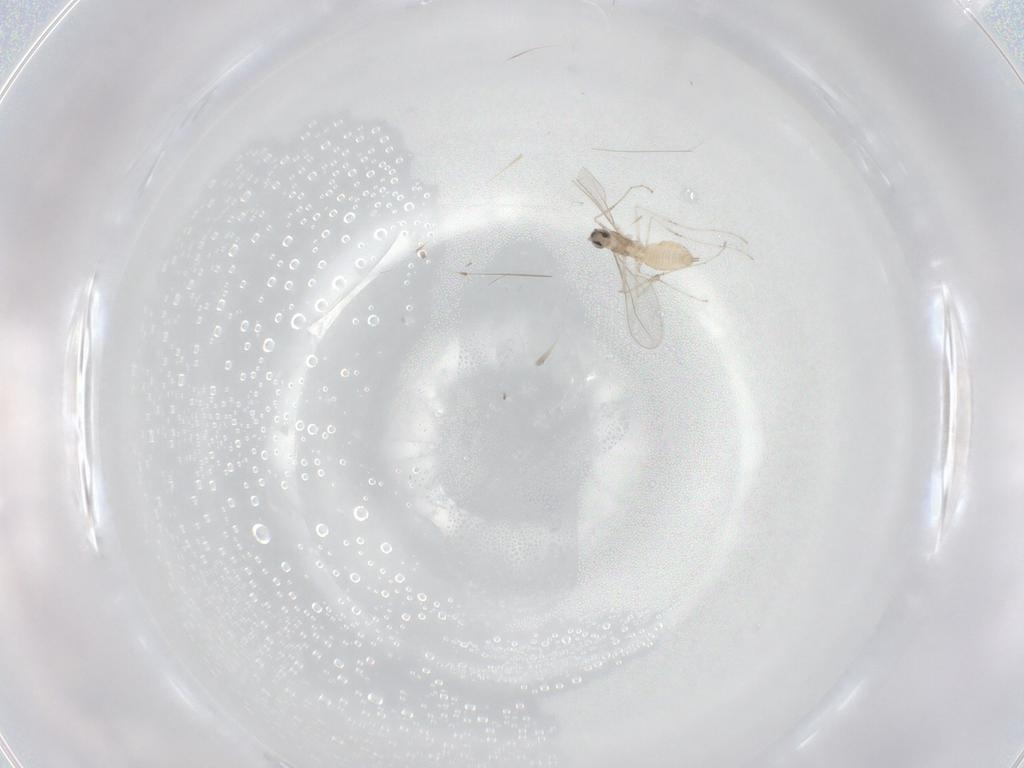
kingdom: Animalia
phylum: Arthropoda
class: Insecta
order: Diptera
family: Cecidomyiidae
